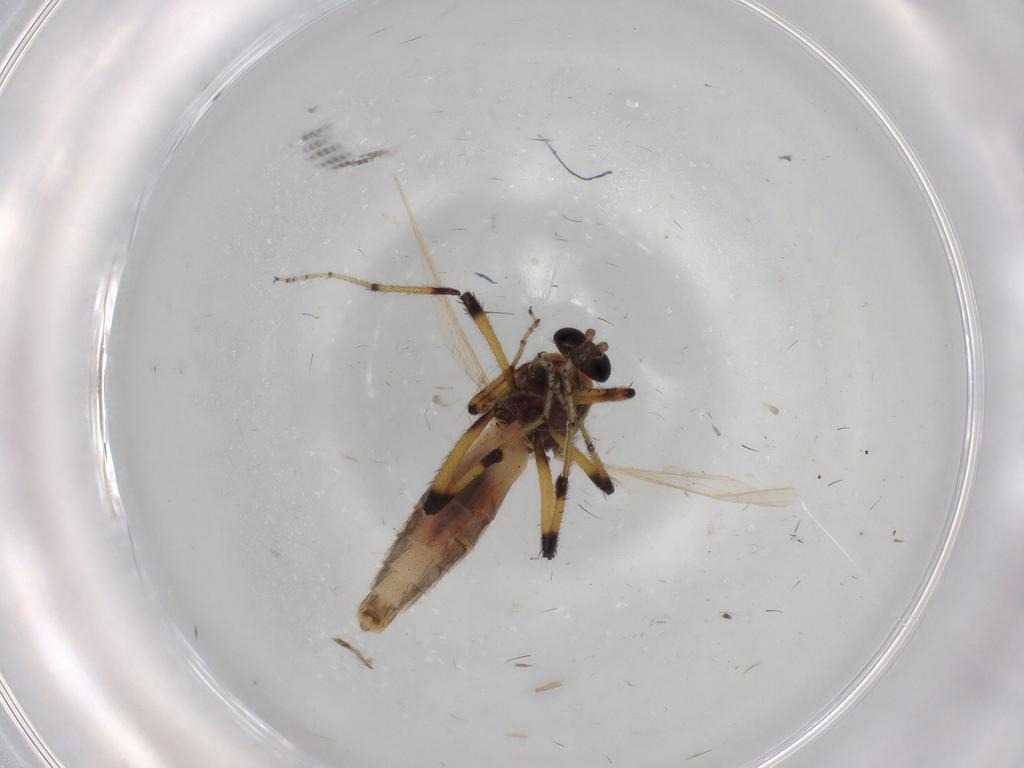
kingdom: Animalia
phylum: Arthropoda
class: Insecta
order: Diptera
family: Ceratopogonidae
